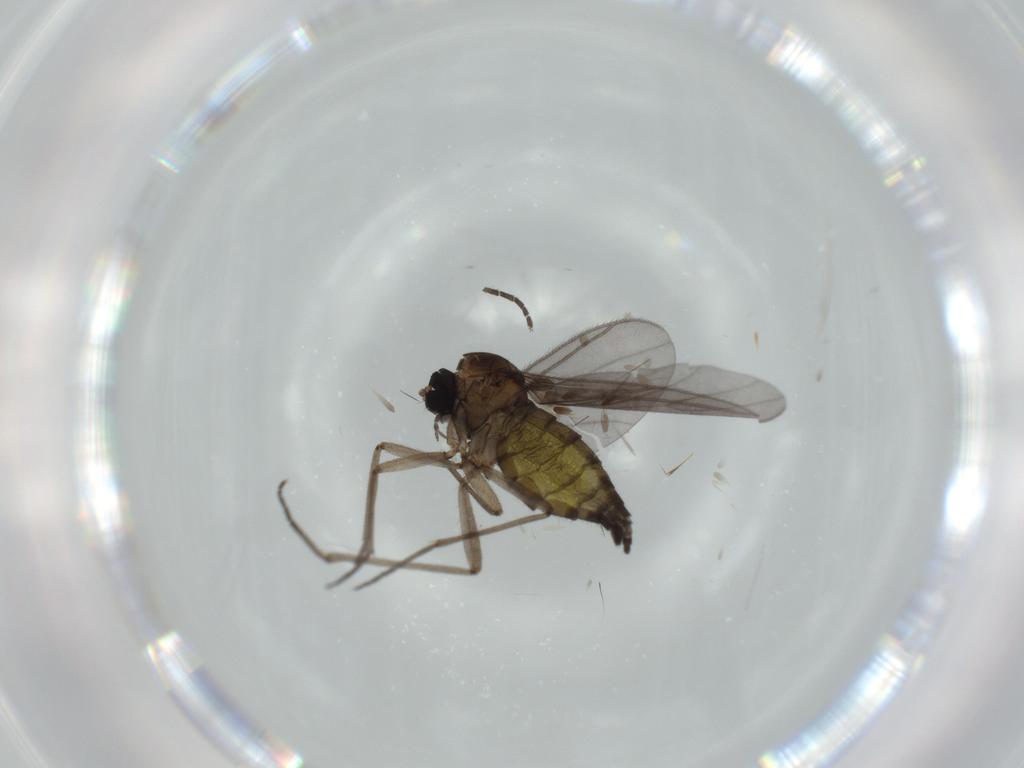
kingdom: Animalia
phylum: Arthropoda
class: Insecta
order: Diptera
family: Sciaridae
